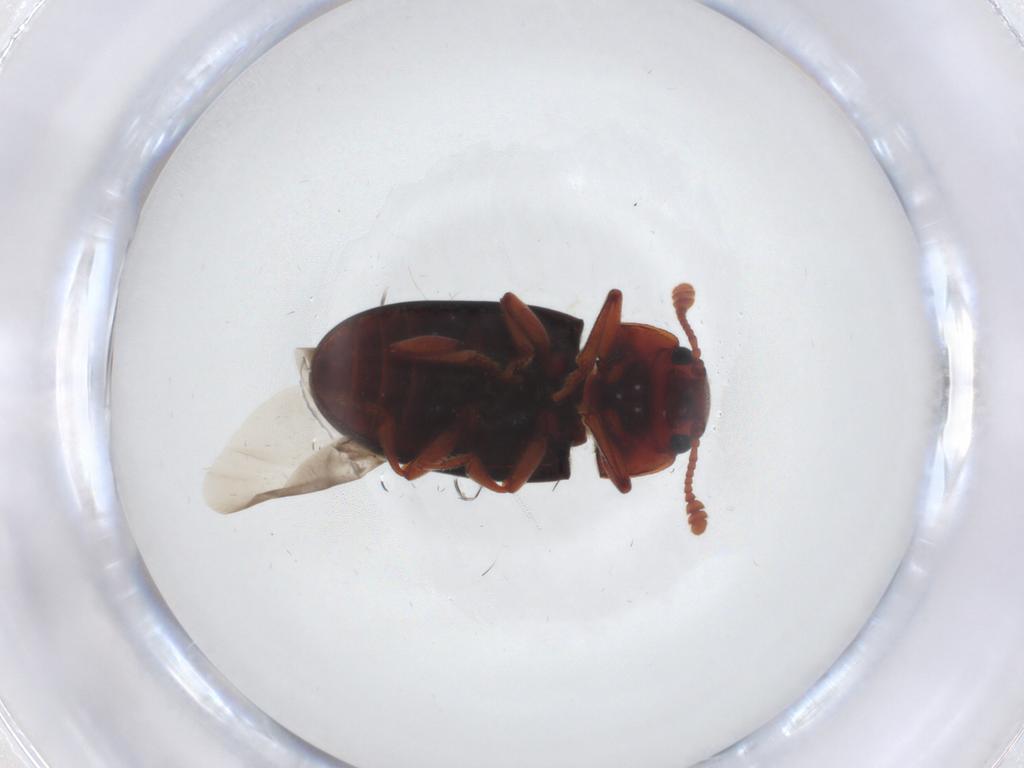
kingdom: Animalia
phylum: Arthropoda
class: Insecta
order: Coleoptera
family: Erotylidae
